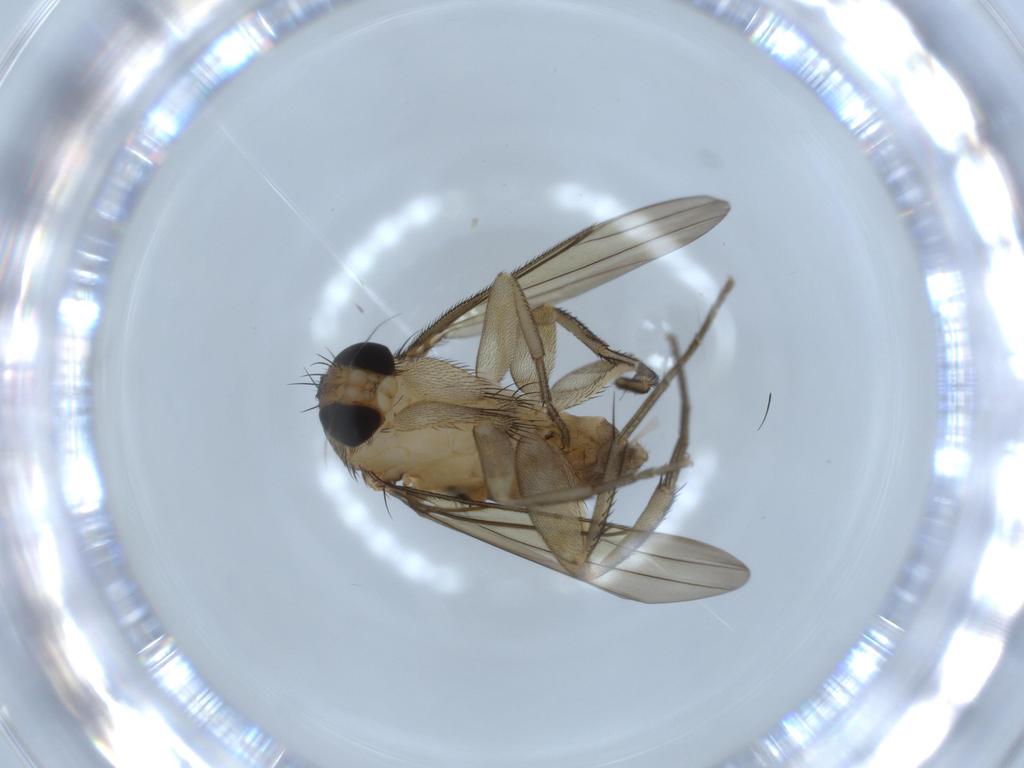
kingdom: Animalia
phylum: Arthropoda
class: Insecta
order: Diptera
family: Phoridae
